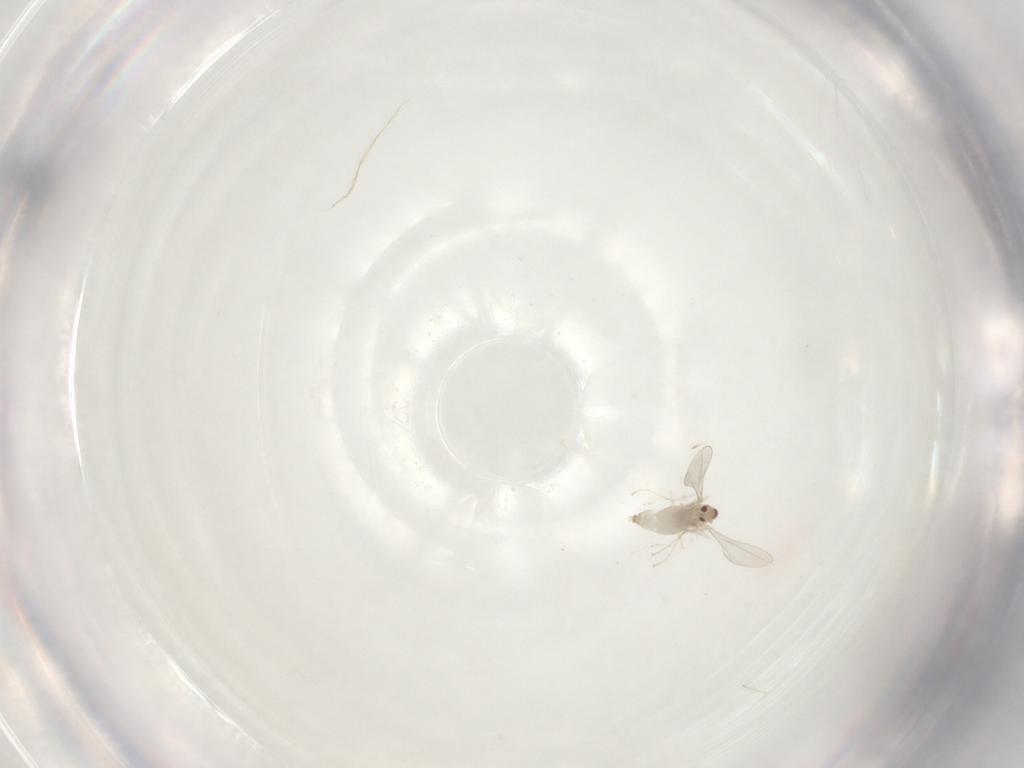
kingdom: Animalia
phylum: Arthropoda
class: Insecta
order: Diptera
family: Cecidomyiidae
